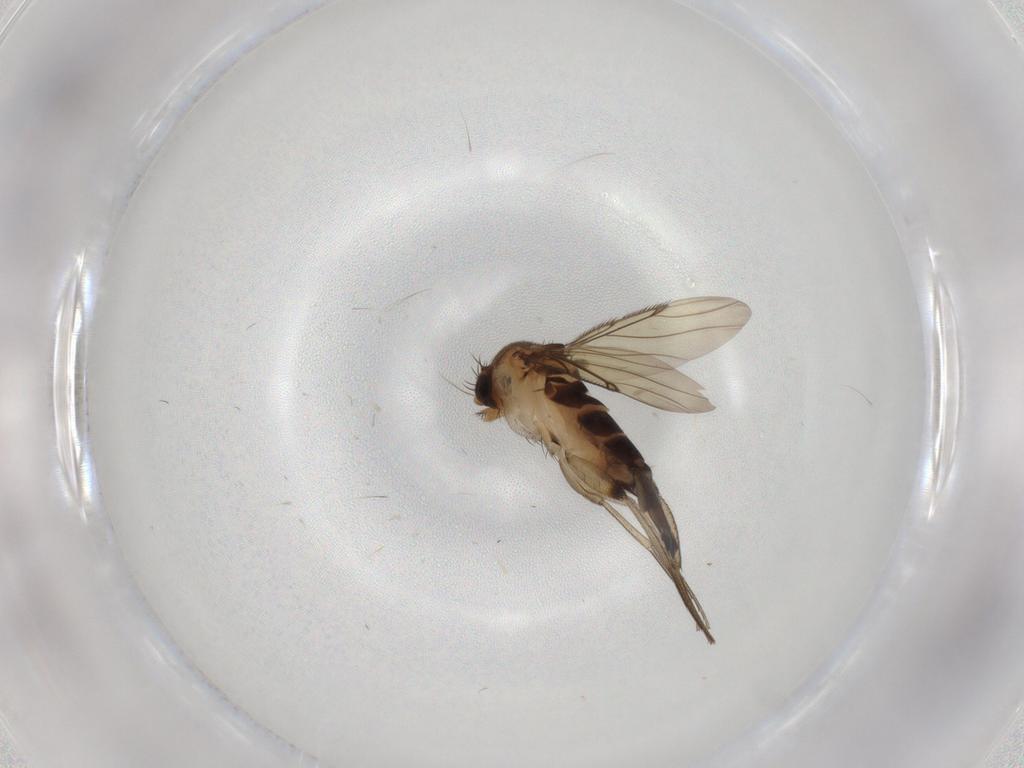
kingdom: Animalia
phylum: Arthropoda
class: Insecta
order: Diptera
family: Phoridae
